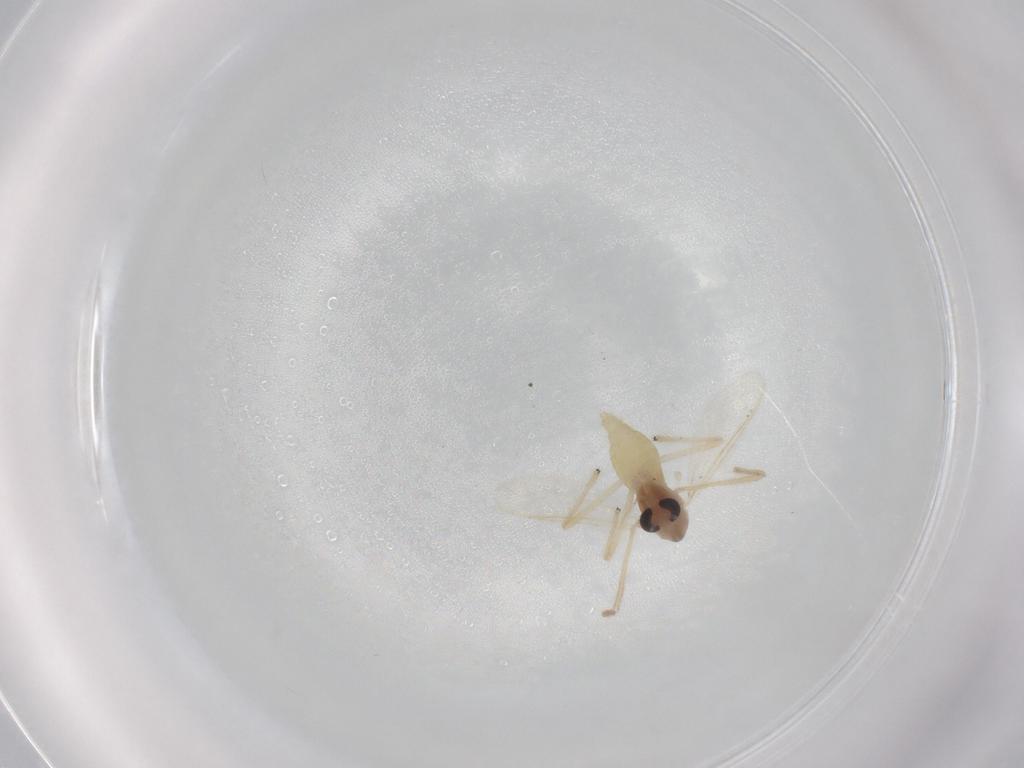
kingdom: Animalia
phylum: Arthropoda
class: Insecta
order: Diptera
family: Chironomidae
